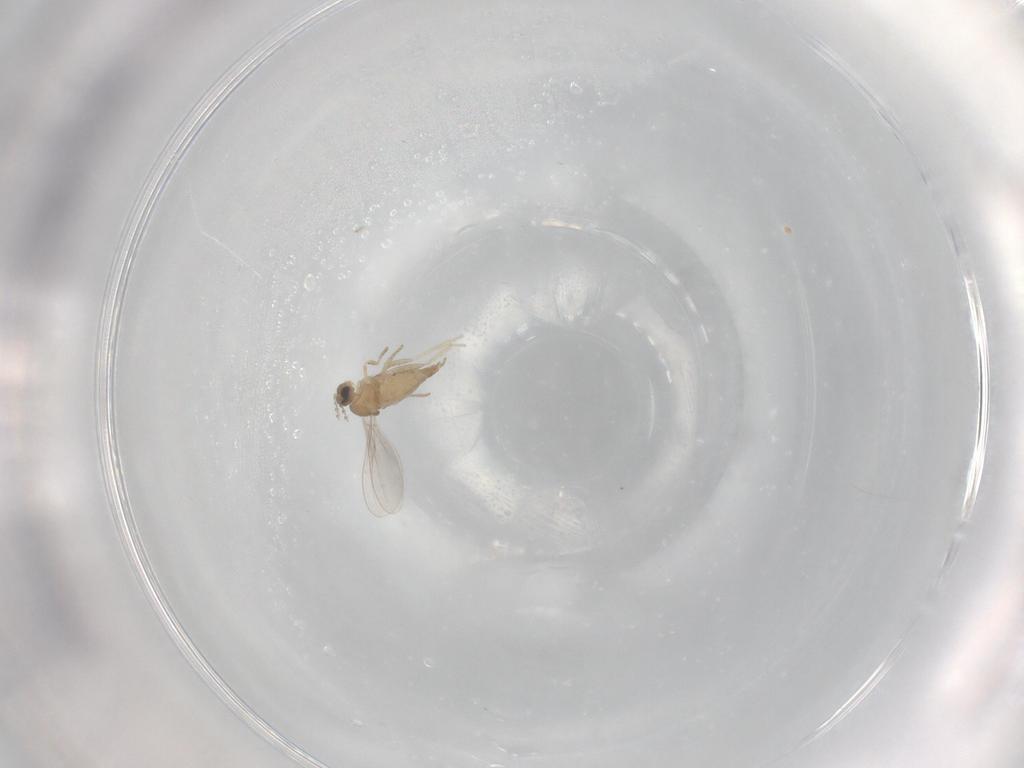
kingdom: Animalia
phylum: Arthropoda
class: Insecta
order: Diptera
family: Cecidomyiidae
